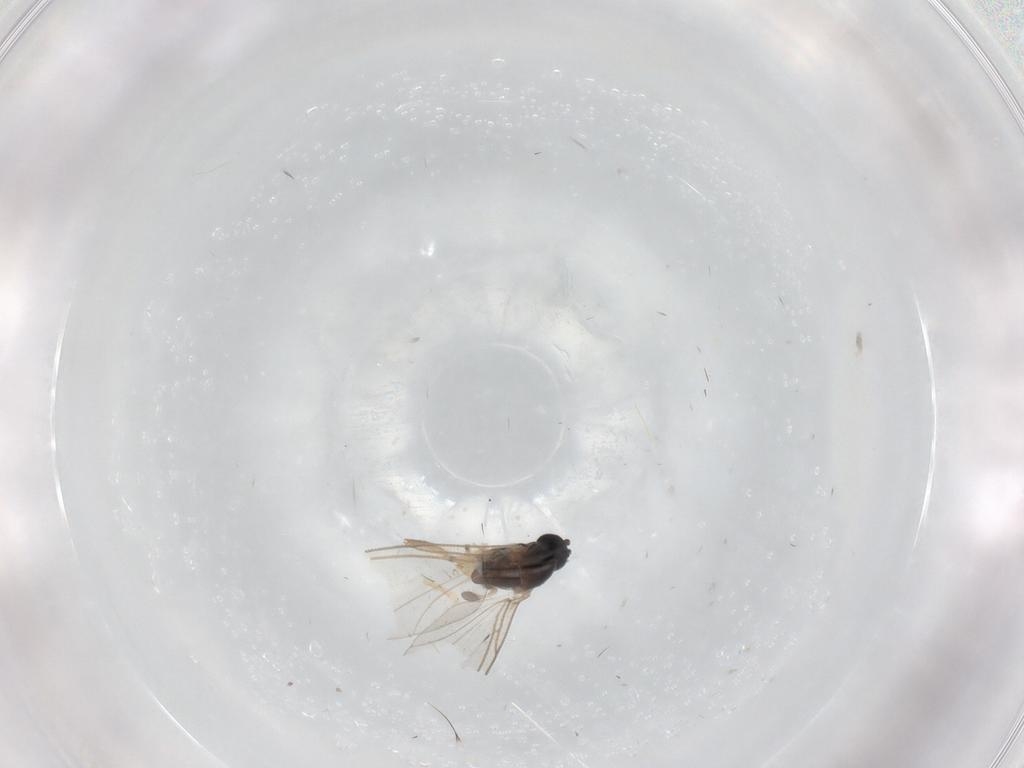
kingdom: Animalia
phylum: Arthropoda
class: Insecta
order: Diptera
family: Sciaridae
